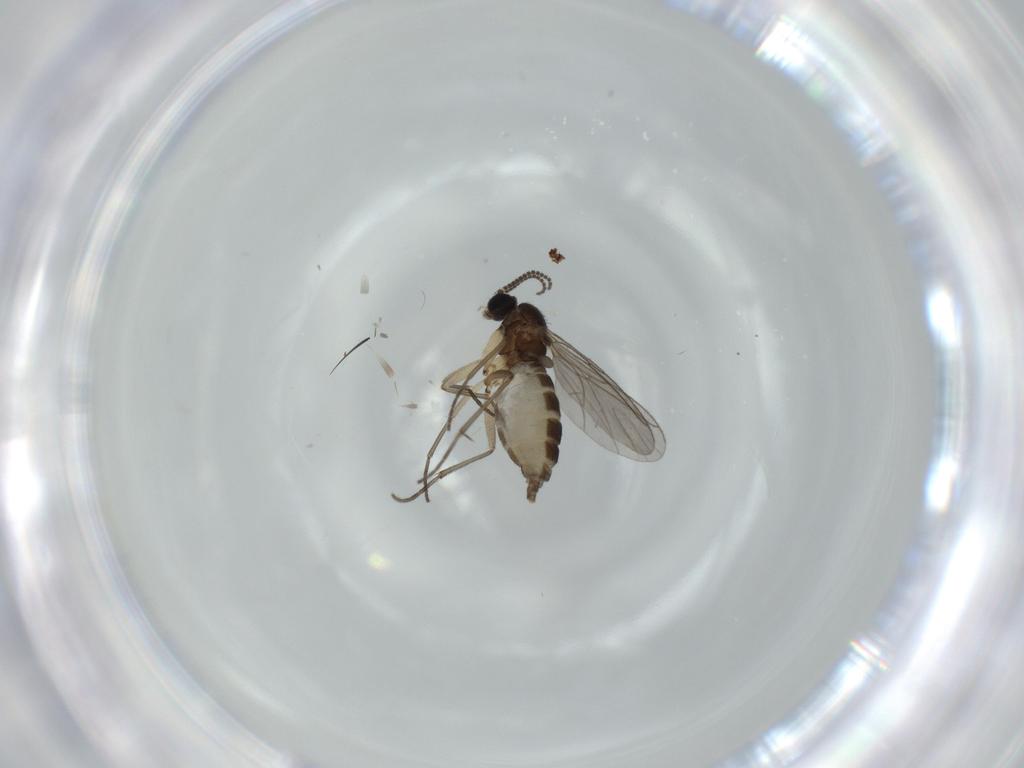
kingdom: Animalia
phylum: Arthropoda
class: Insecta
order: Diptera
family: Sciaridae
